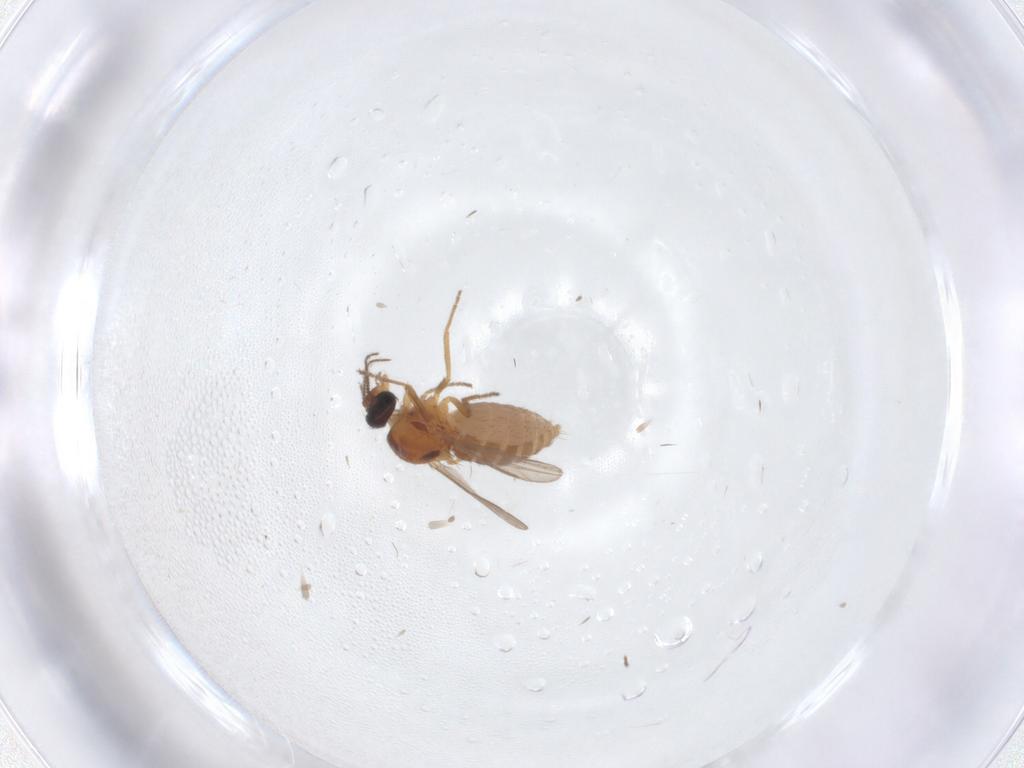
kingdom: Animalia
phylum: Arthropoda
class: Insecta
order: Diptera
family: Ceratopogonidae
